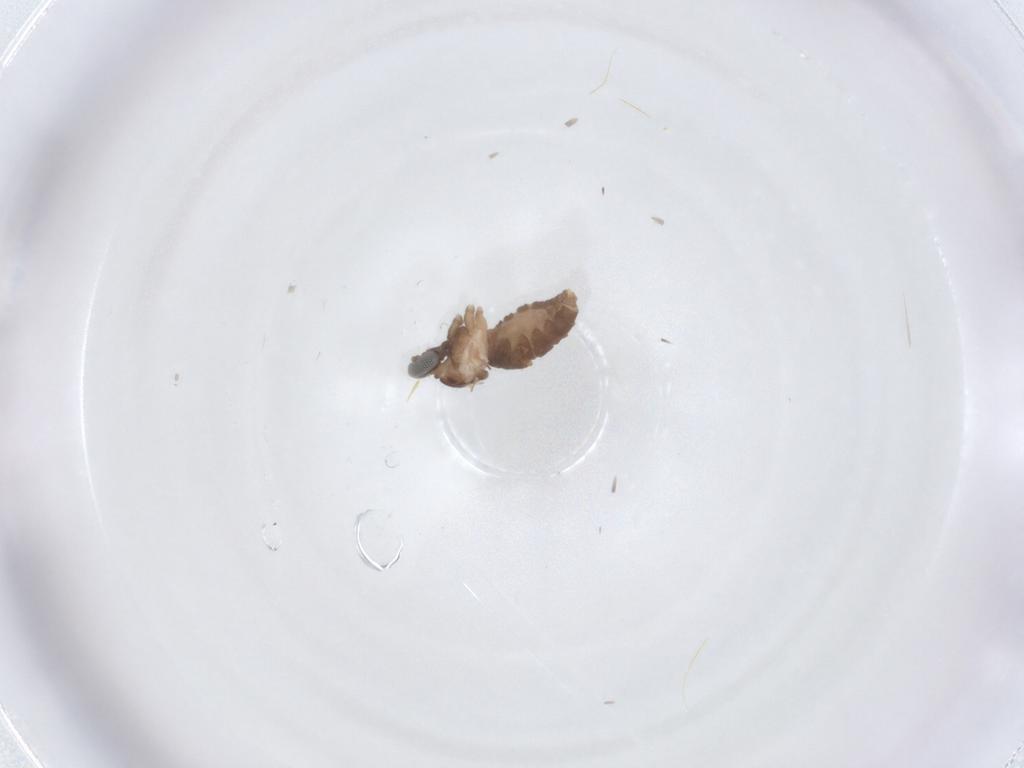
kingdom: Animalia
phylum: Arthropoda
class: Insecta
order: Diptera
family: Cecidomyiidae
